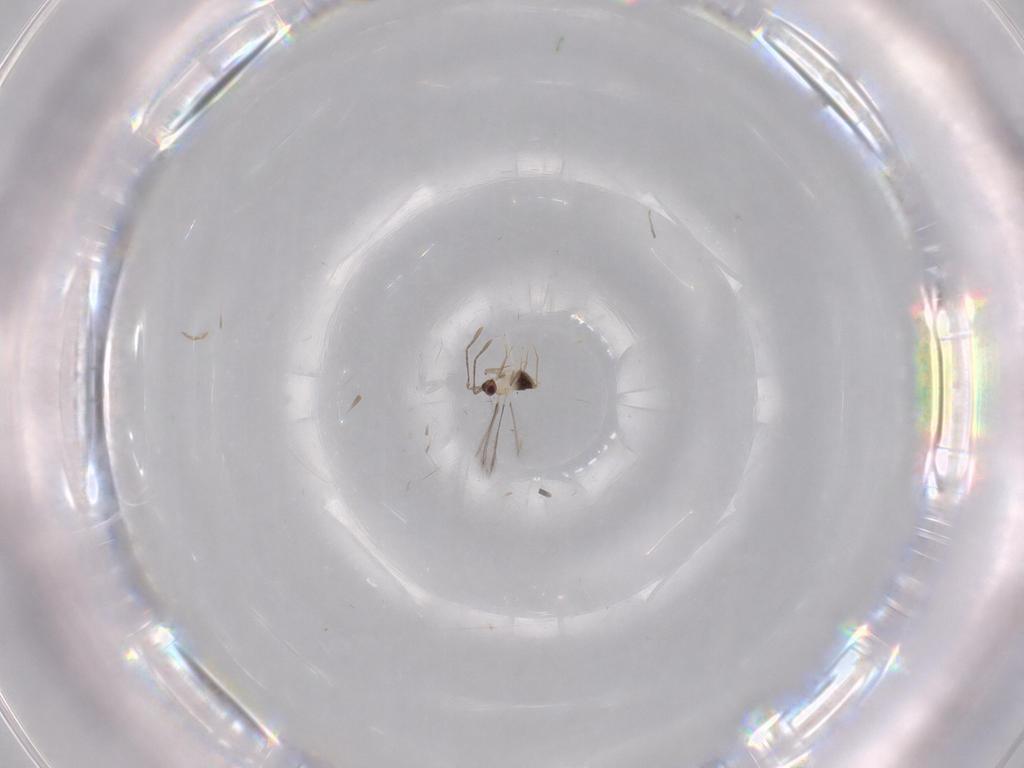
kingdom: Animalia
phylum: Arthropoda
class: Insecta
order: Hymenoptera
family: Mymaridae
